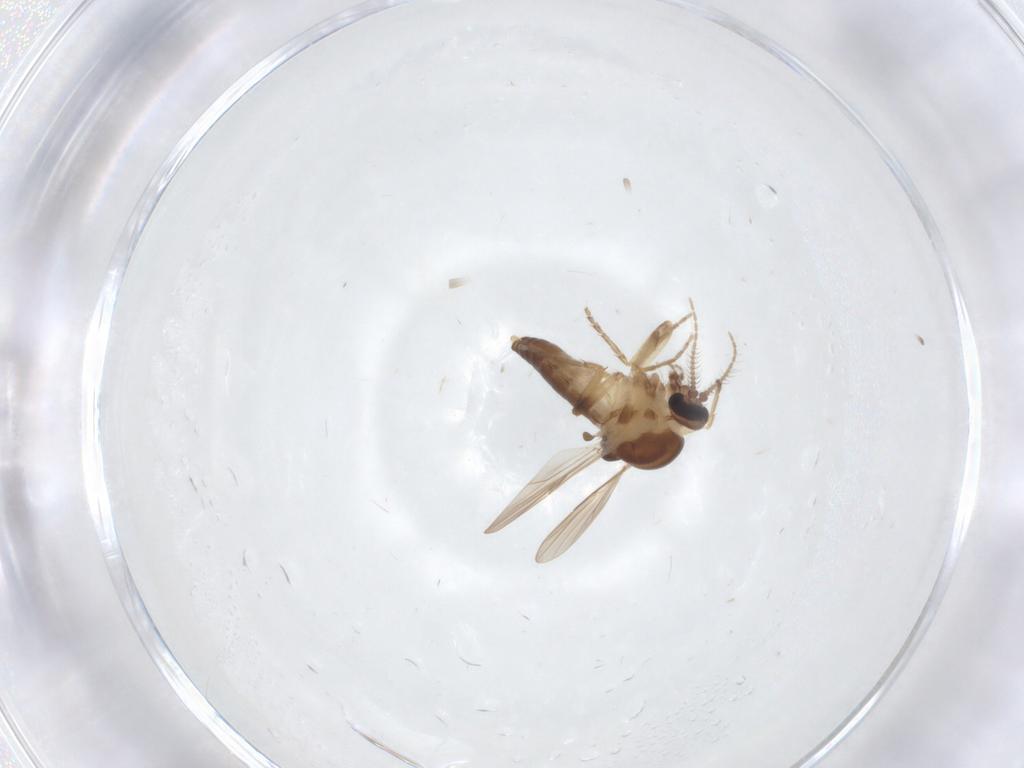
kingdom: Animalia
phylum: Arthropoda
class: Insecta
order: Diptera
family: Ceratopogonidae
